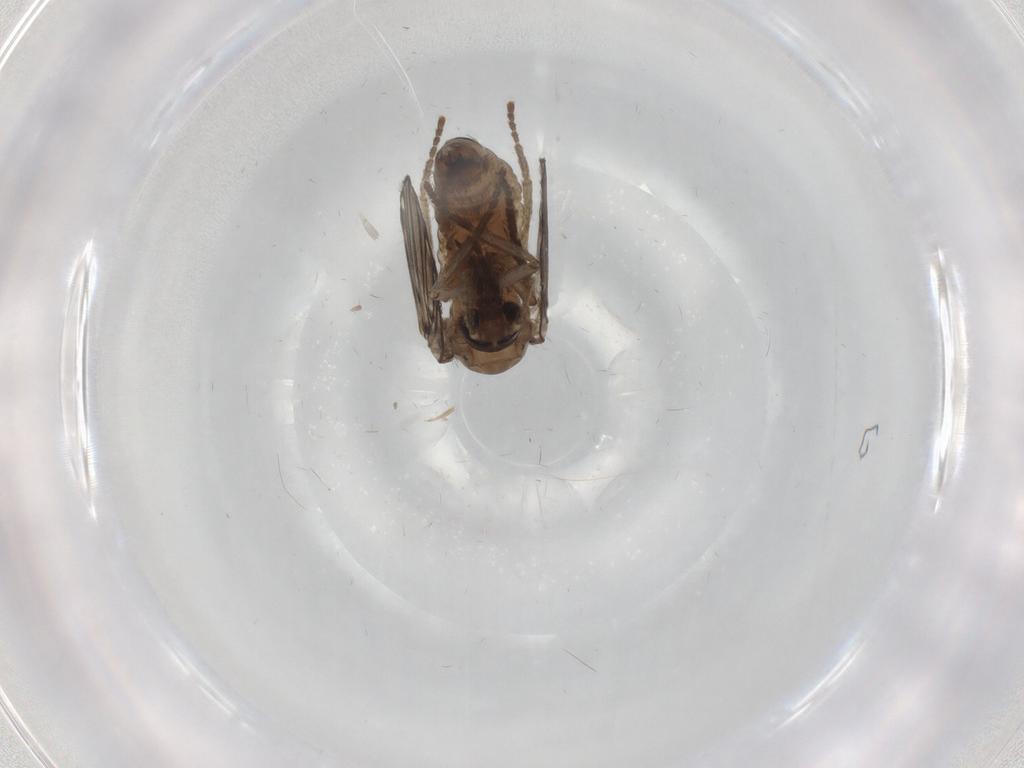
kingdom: Animalia
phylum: Arthropoda
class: Insecta
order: Diptera
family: Psychodidae
